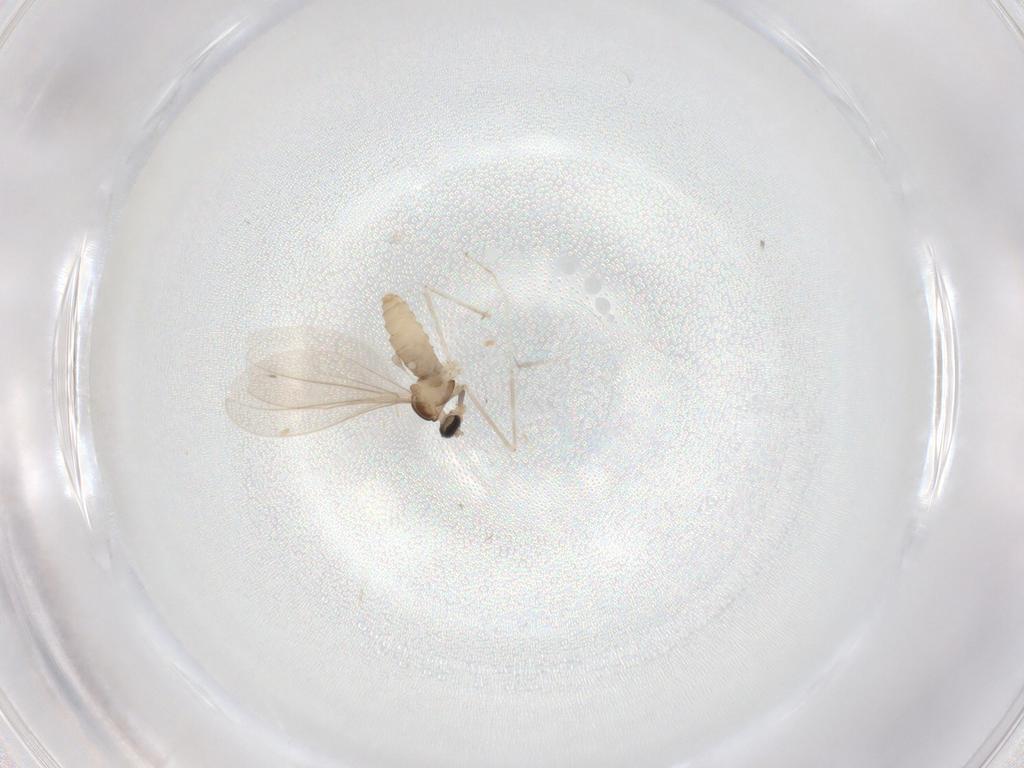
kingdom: Animalia
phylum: Arthropoda
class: Insecta
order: Diptera
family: Cecidomyiidae
